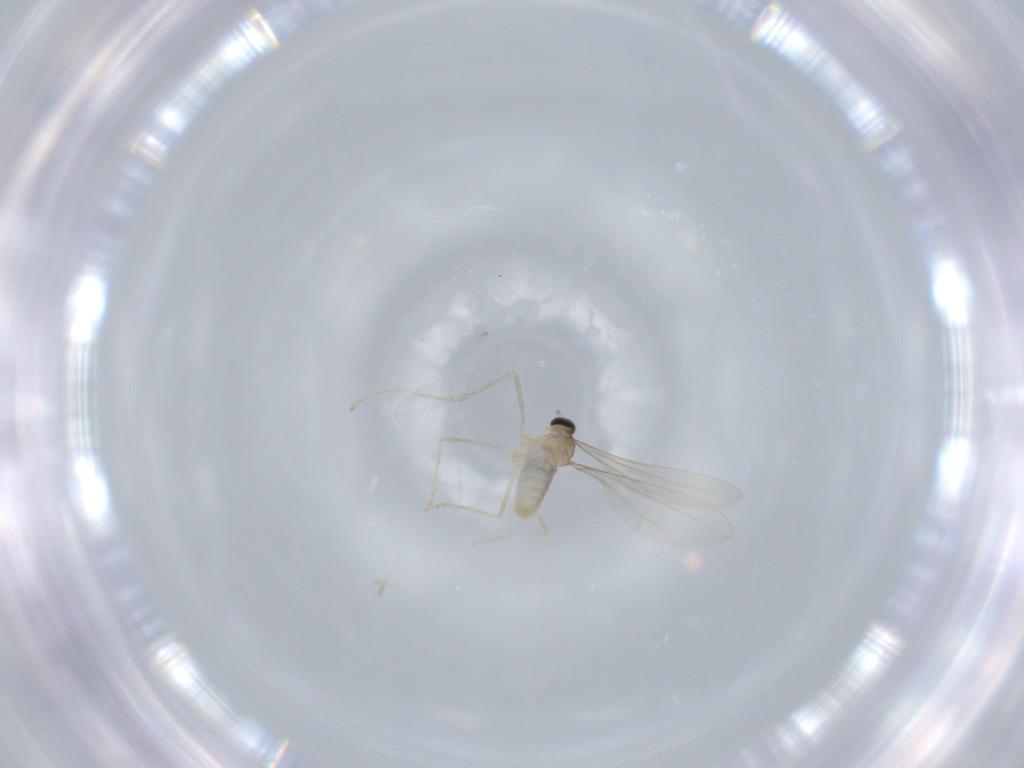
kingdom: Animalia
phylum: Arthropoda
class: Insecta
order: Diptera
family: Cecidomyiidae
